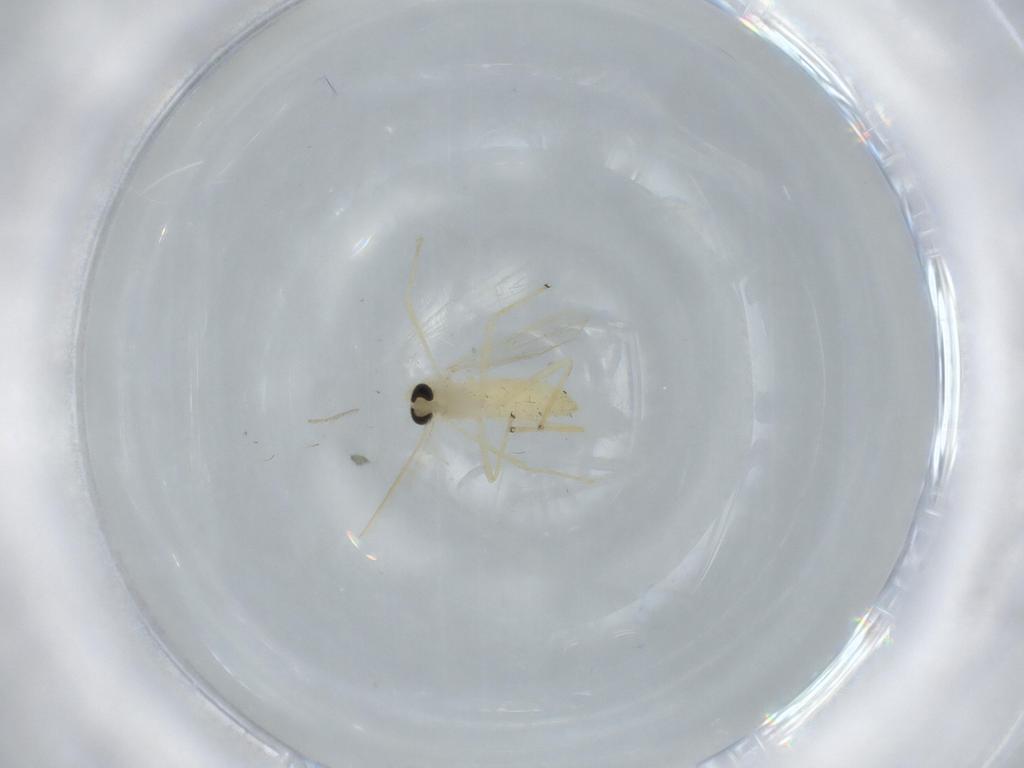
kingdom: Animalia
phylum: Arthropoda
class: Insecta
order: Diptera
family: Chironomidae
